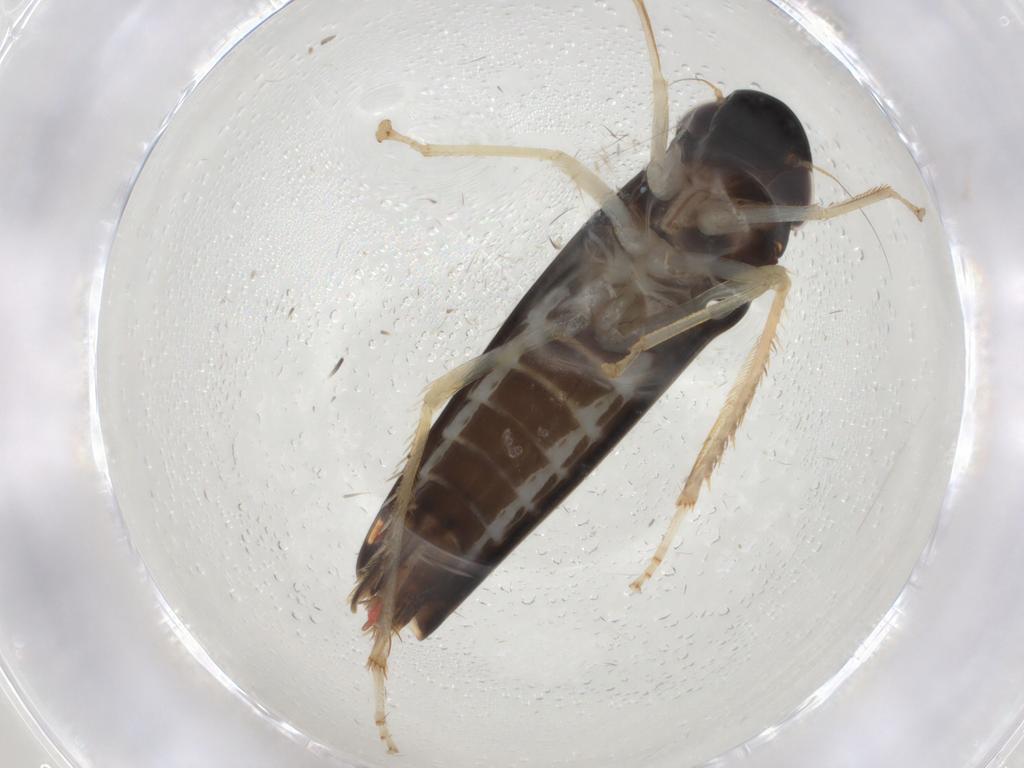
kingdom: Animalia
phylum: Arthropoda
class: Insecta
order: Hemiptera
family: Cicadellidae
